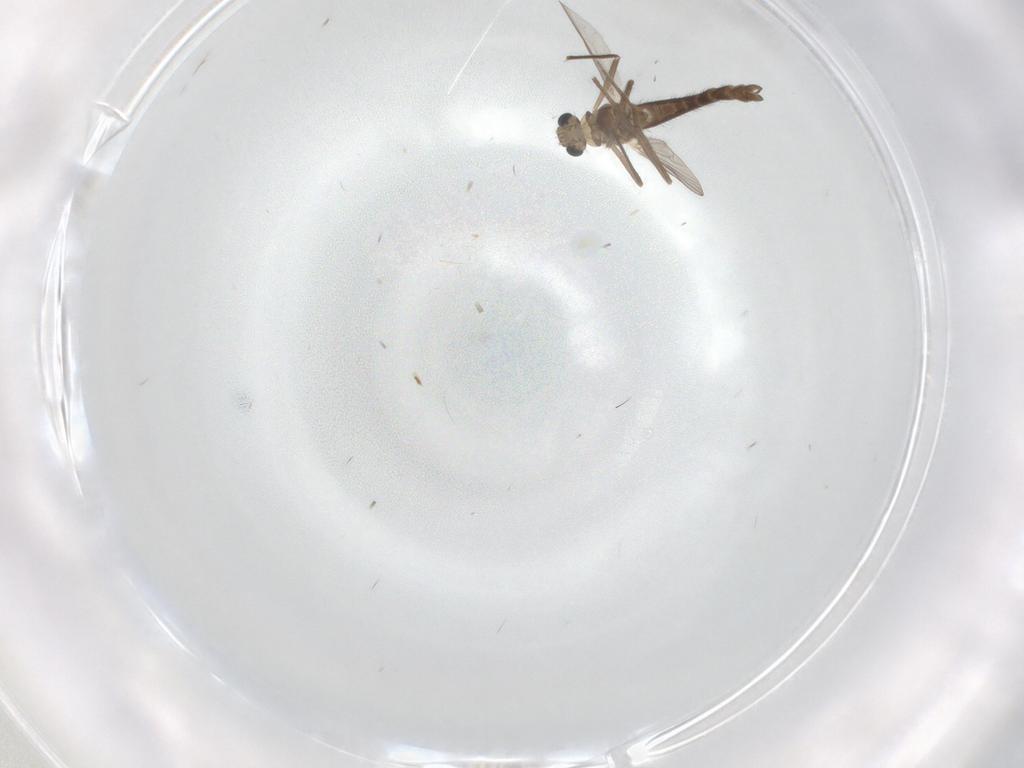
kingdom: Animalia
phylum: Arthropoda
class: Insecta
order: Diptera
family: Chironomidae
